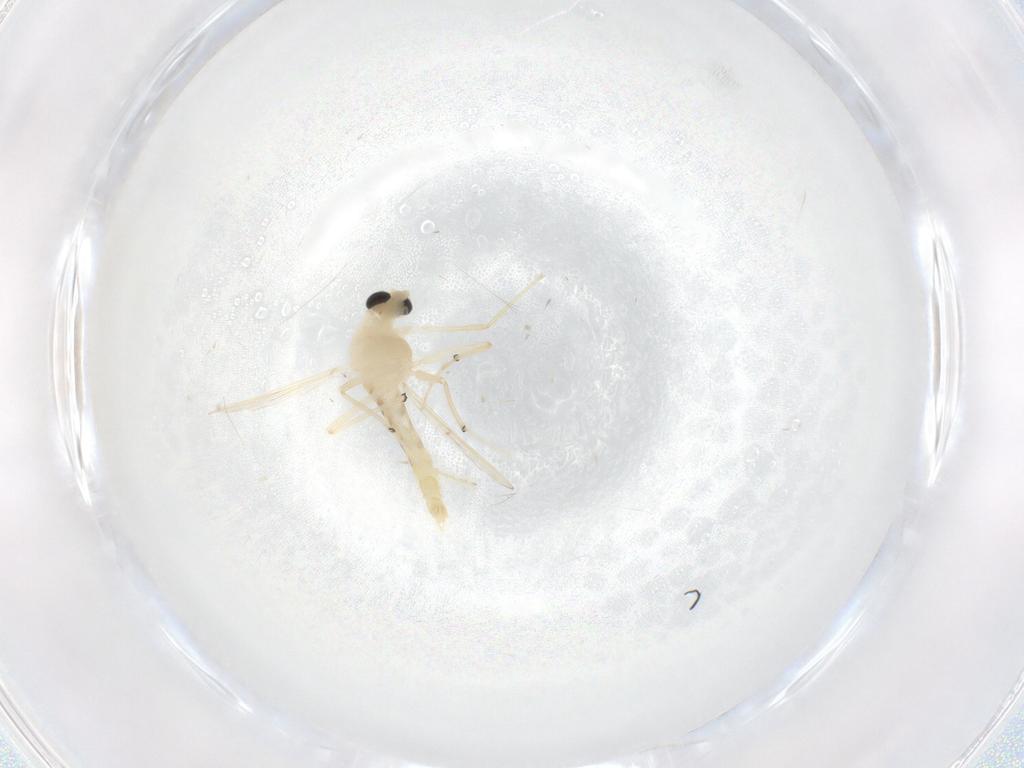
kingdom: Animalia
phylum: Arthropoda
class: Insecta
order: Diptera
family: Chironomidae
